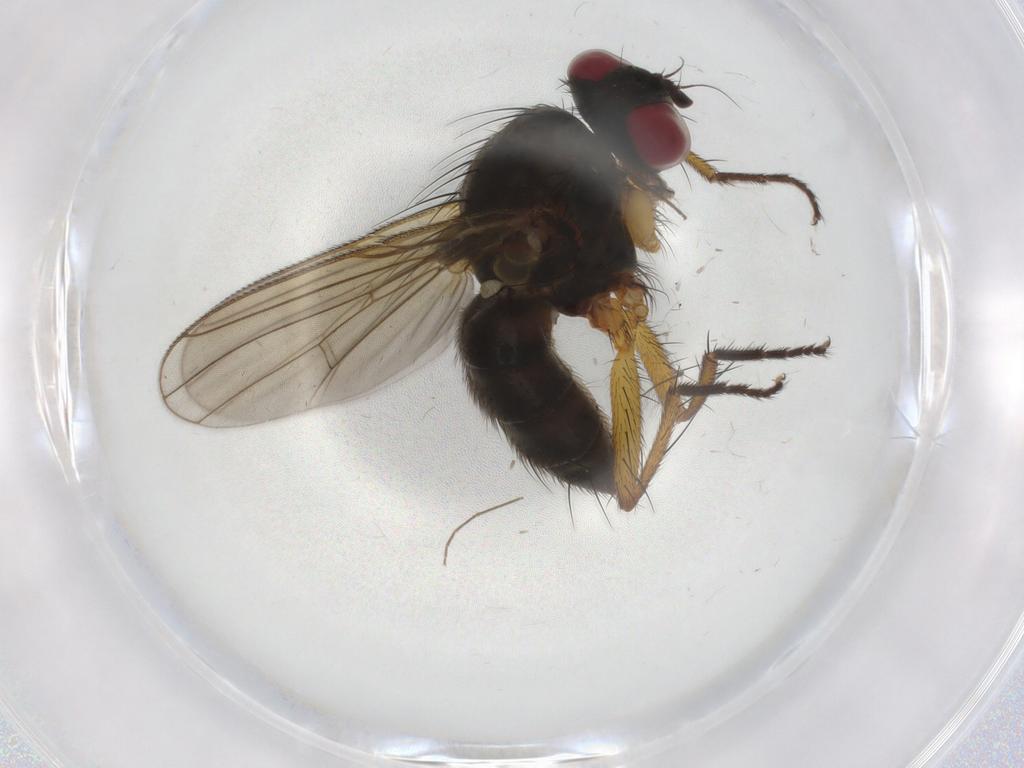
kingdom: Animalia
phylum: Arthropoda
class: Insecta
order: Diptera
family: Muscidae
